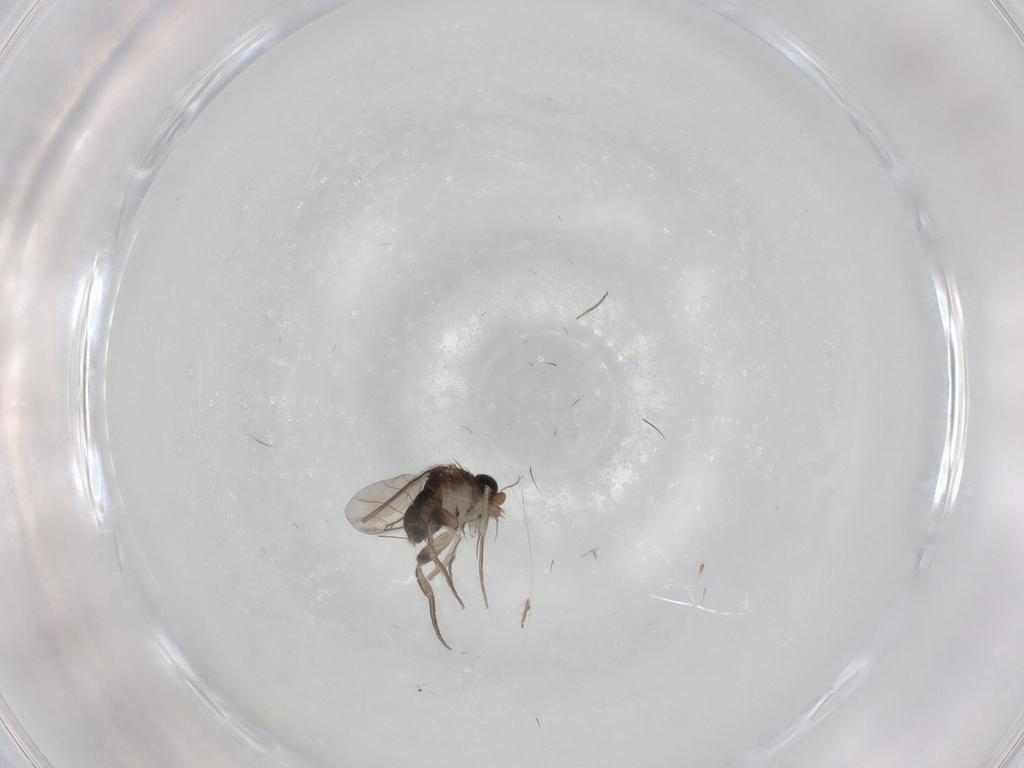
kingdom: Animalia
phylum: Arthropoda
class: Insecta
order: Diptera
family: Phoridae
